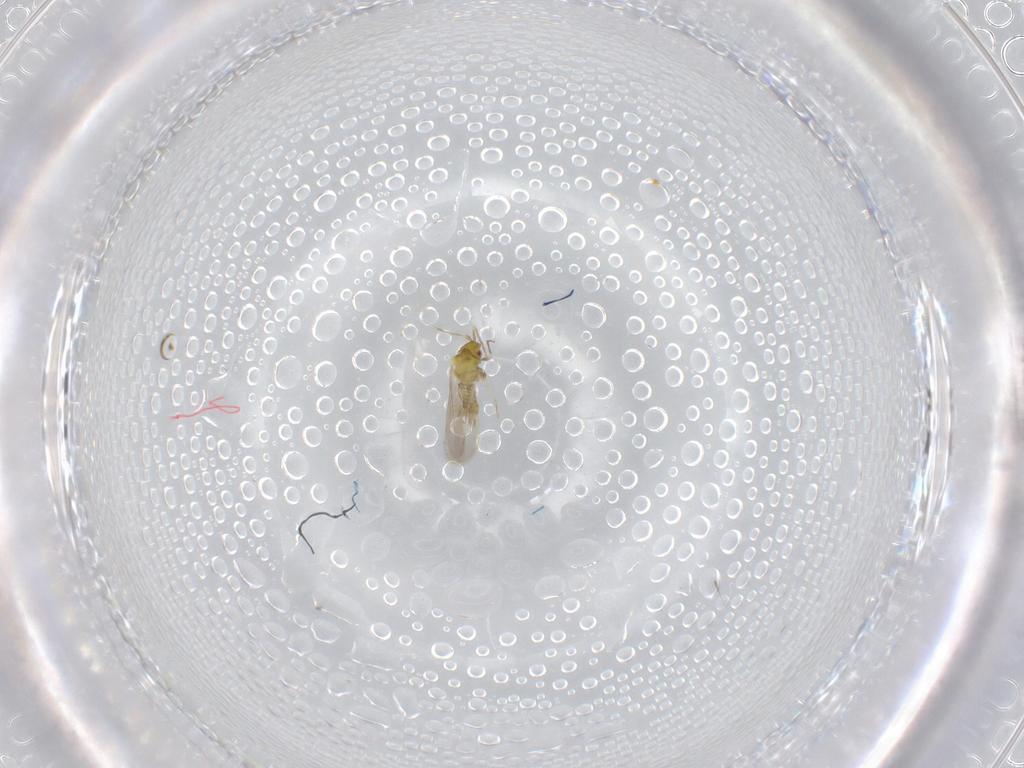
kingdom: Animalia
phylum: Arthropoda
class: Insecta
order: Hemiptera
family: Aleyrodidae
